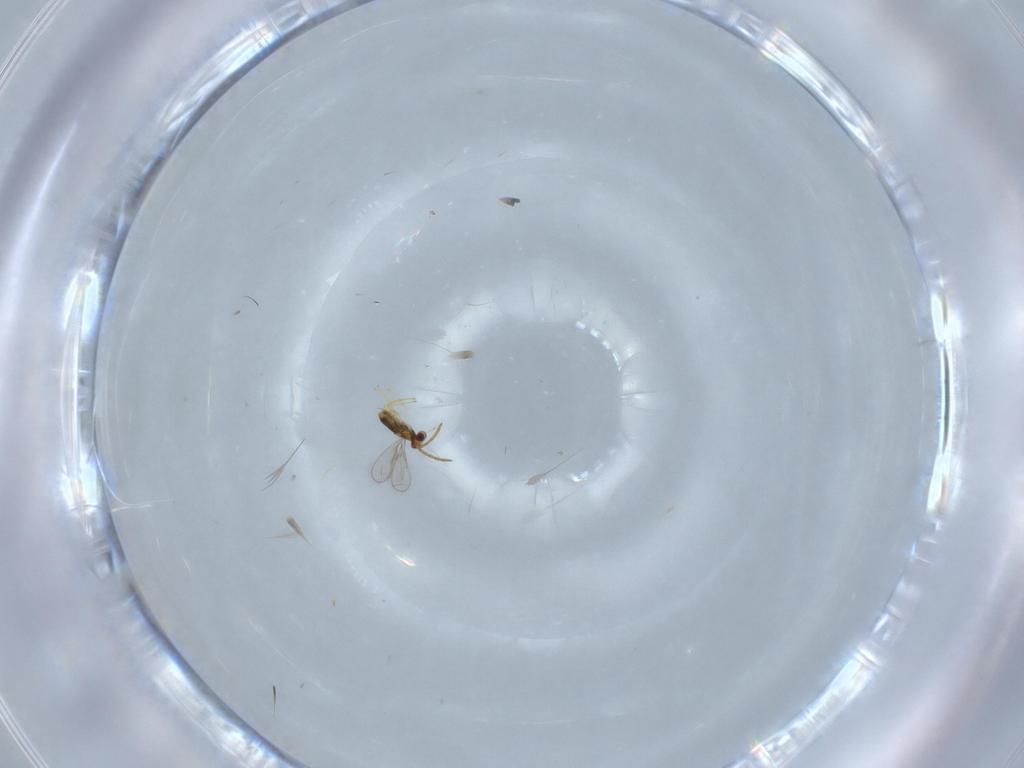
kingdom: Animalia
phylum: Arthropoda
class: Insecta
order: Hymenoptera
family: Aphelinidae
